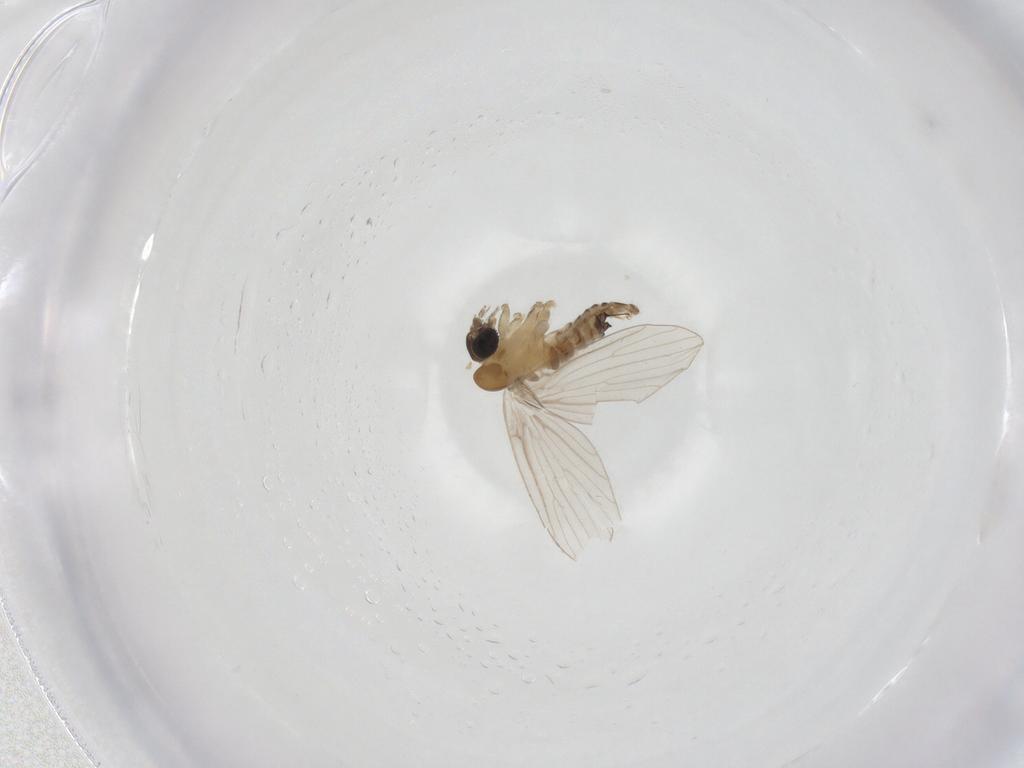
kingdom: Animalia
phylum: Arthropoda
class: Insecta
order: Diptera
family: Psychodidae
